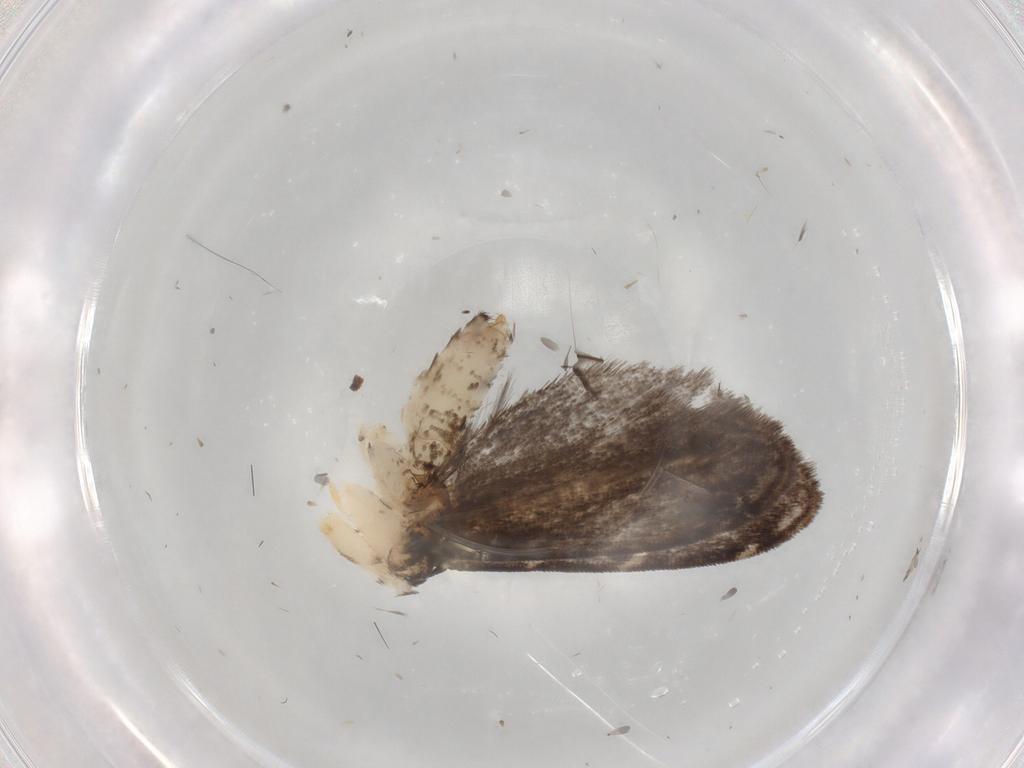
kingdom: Animalia
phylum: Arthropoda
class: Insecta
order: Lepidoptera
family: Dryadaulidae
